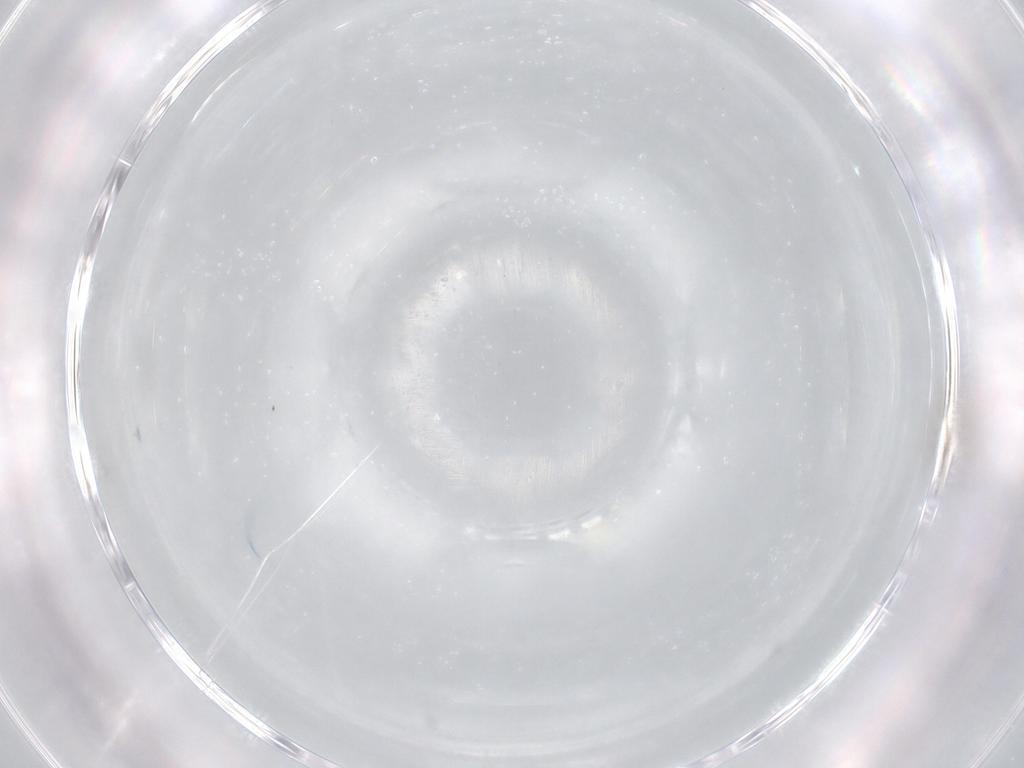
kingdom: Animalia
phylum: Arthropoda
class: Insecta
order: Diptera
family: Cecidomyiidae
